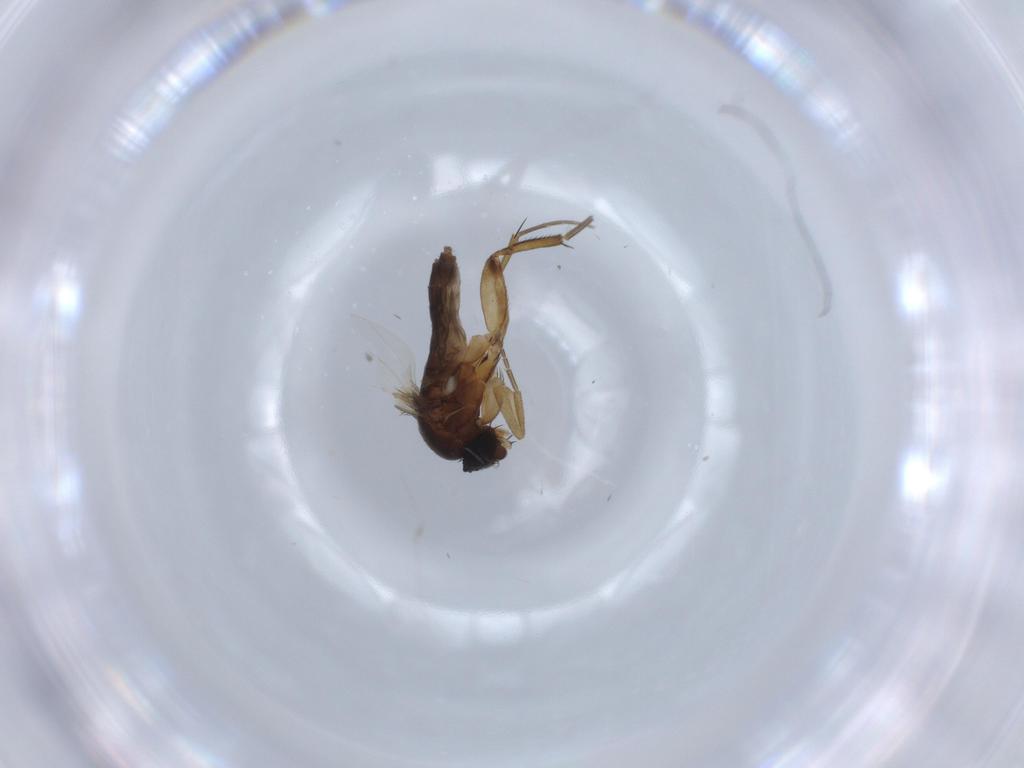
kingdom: Animalia
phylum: Arthropoda
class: Insecta
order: Diptera
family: Phoridae
